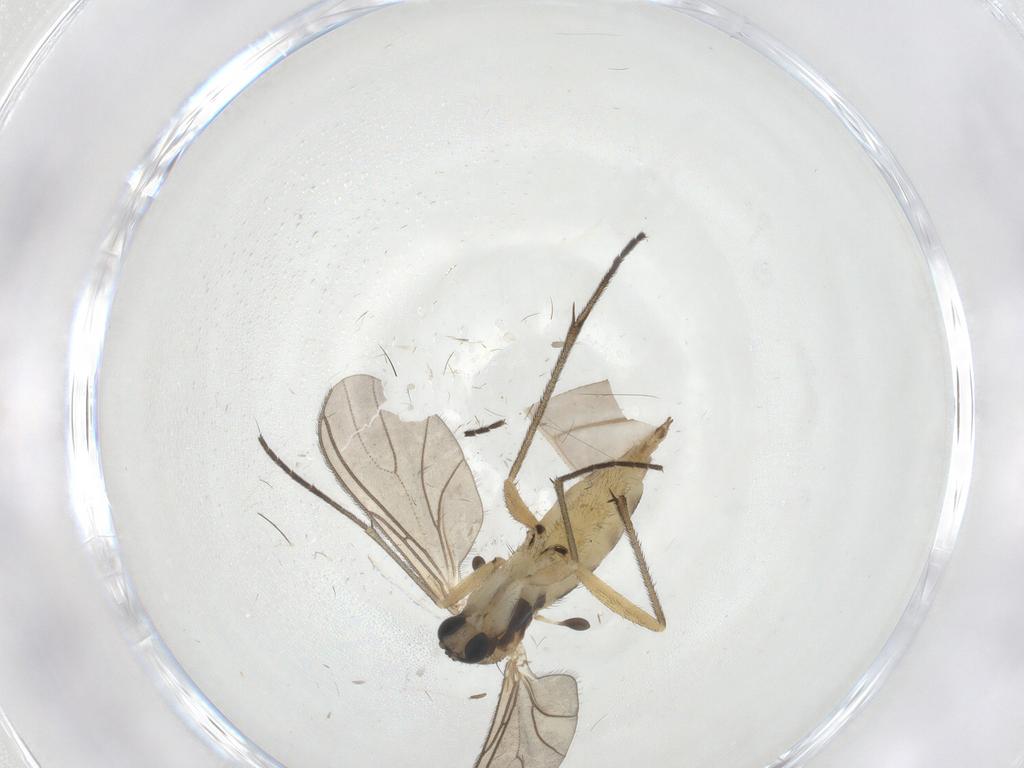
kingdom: Animalia
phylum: Arthropoda
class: Insecta
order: Diptera
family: Sciaridae
